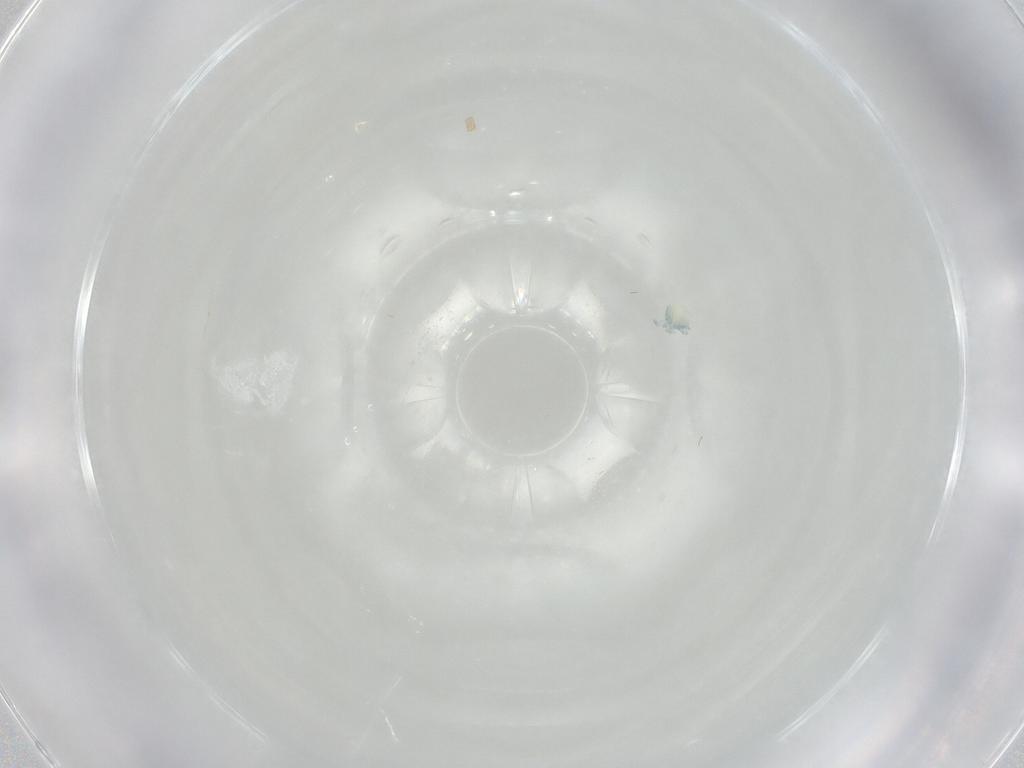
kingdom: Animalia
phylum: Arthropoda
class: Arachnida
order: Trombidiformes
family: Arrenuridae
